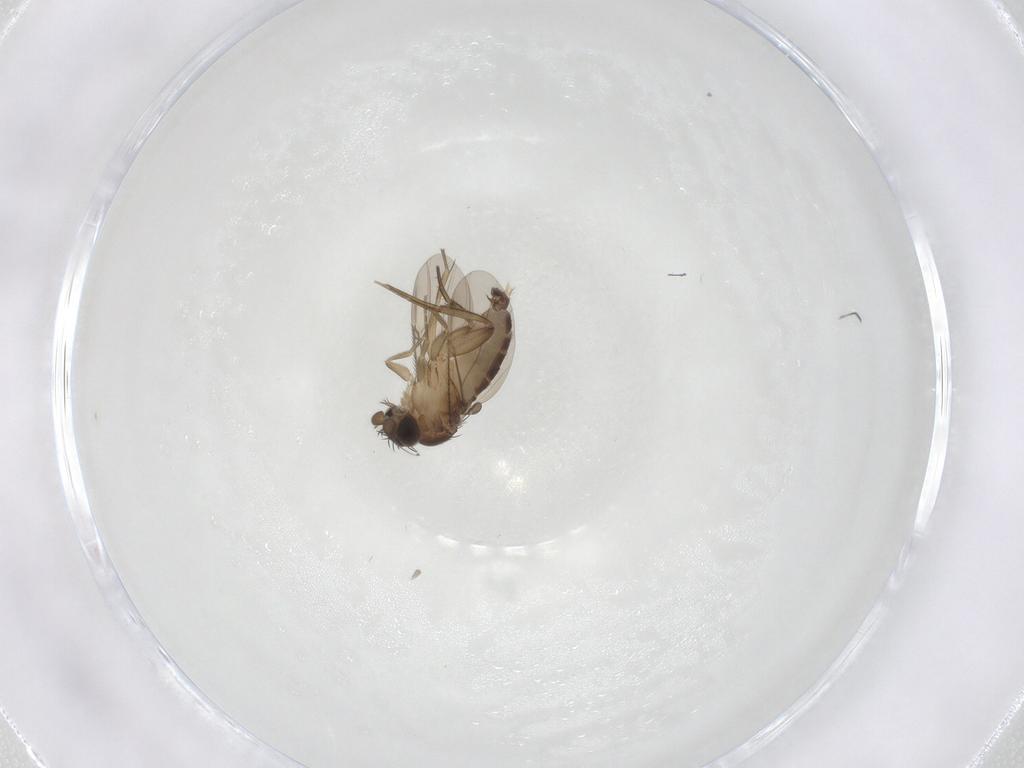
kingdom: Animalia
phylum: Arthropoda
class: Insecta
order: Diptera
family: Phoridae
